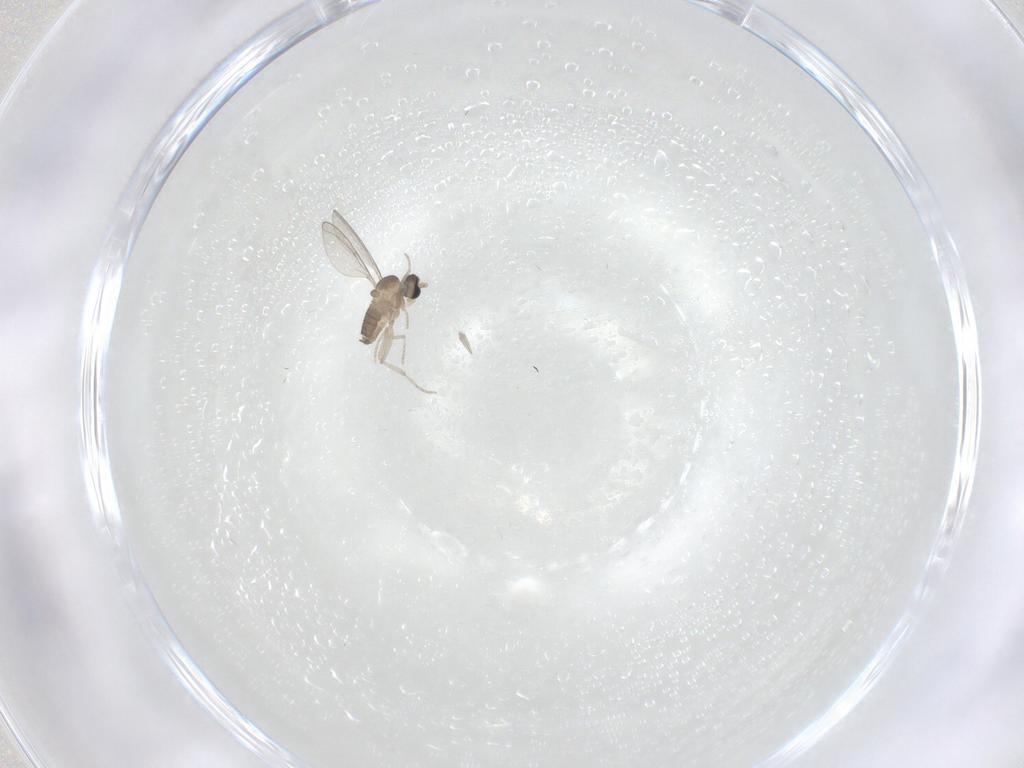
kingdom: Animalia
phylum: Arthropoda
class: Insecta
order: Diptera
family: Cecidomyiidae
